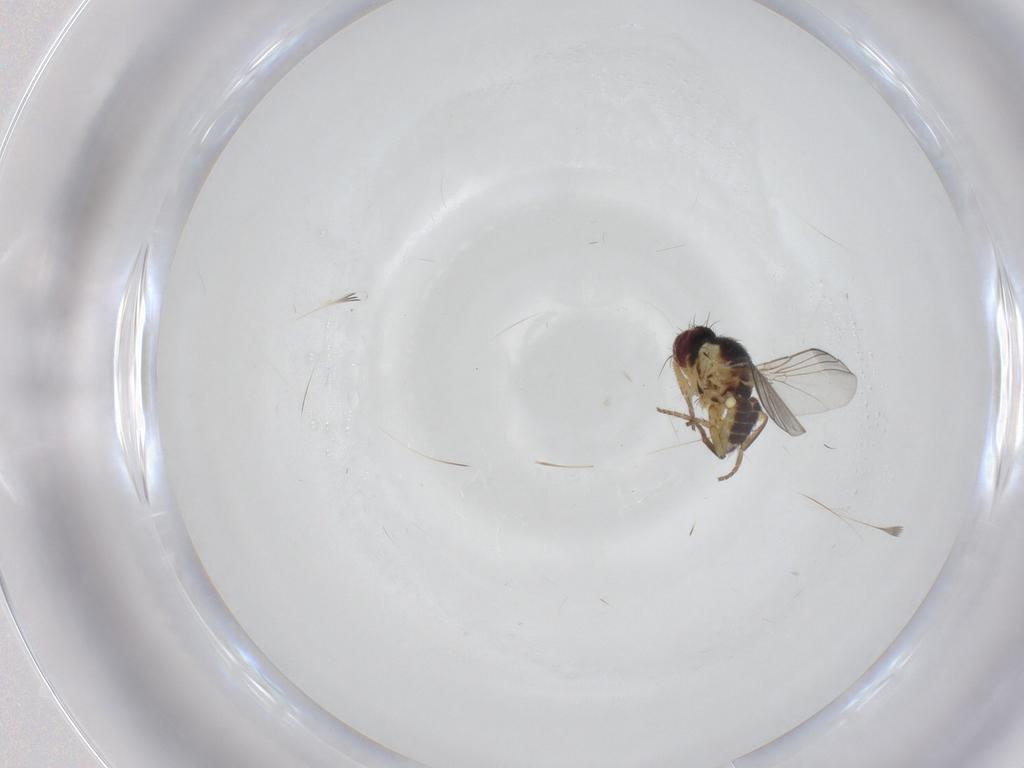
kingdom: Animalia
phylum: Arthropoda
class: Insecta
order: Diptera
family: Agromyzidae
